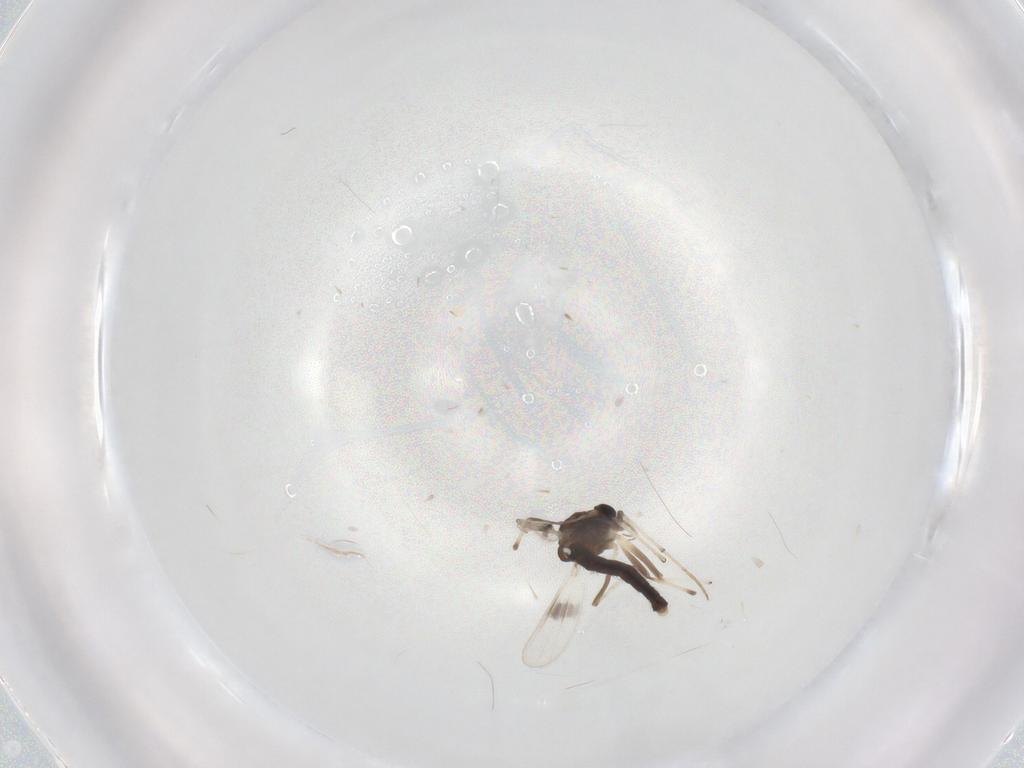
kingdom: Animalia
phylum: Arthropoda
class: Insecta
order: Diptera
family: Chironomidae
